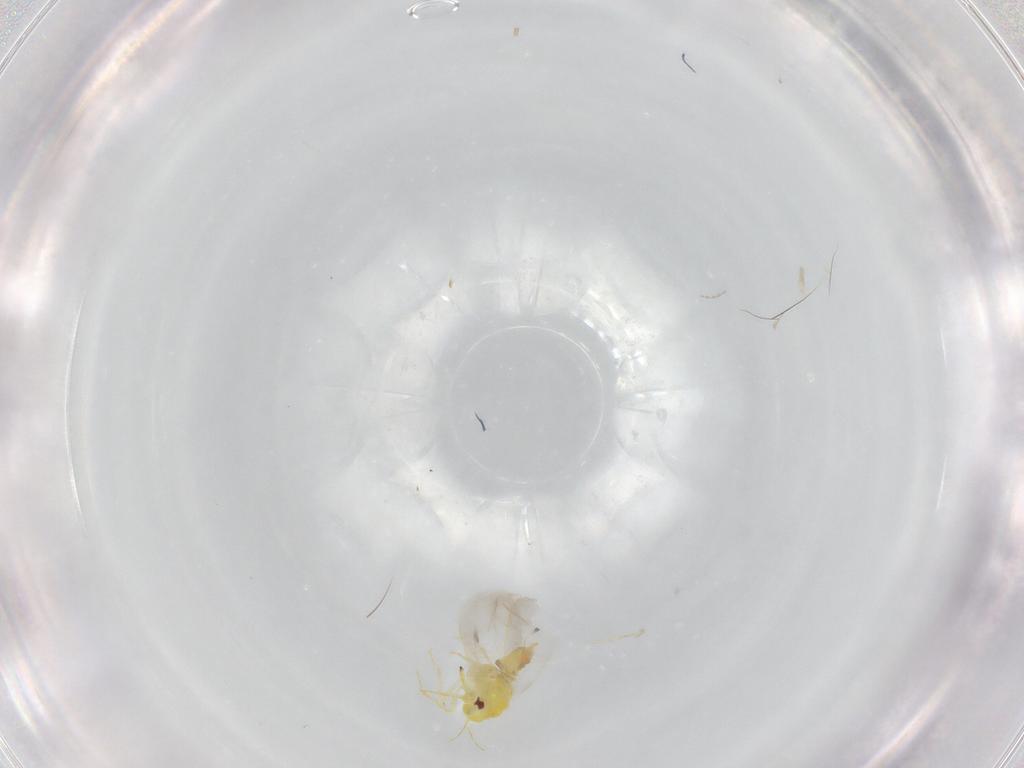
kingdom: Animalia
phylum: Arthropoda
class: Insecta
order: Hemiptera
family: Aleyrodidae
